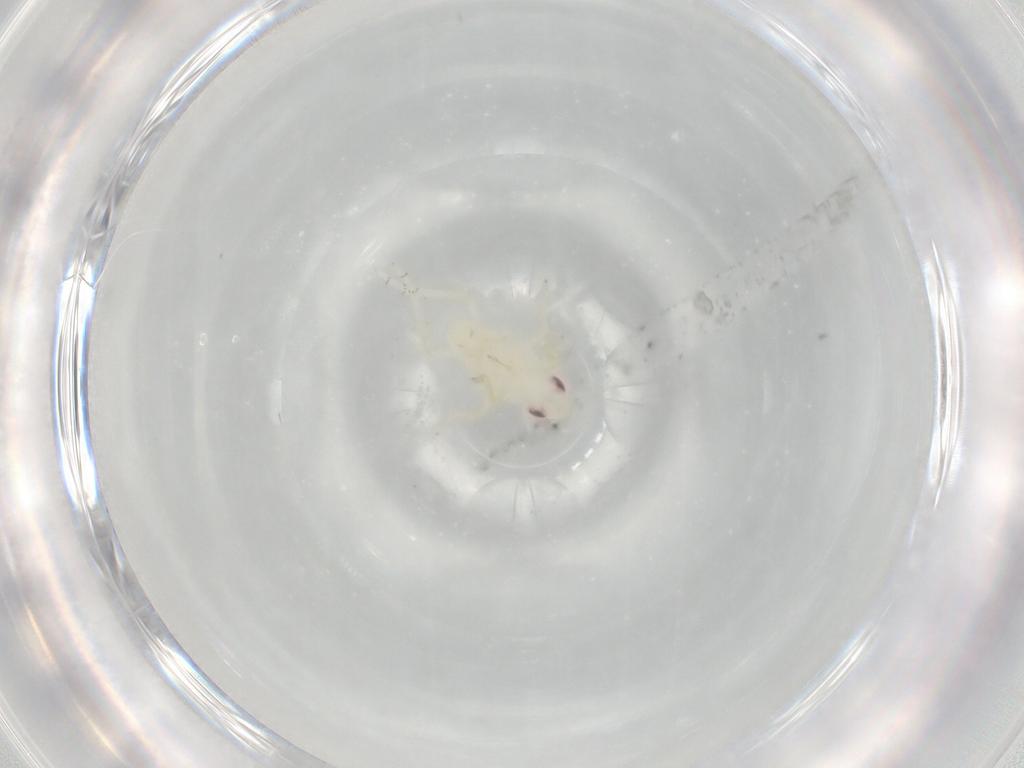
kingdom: Animalia
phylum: Arthropoda
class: Insecta
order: Hemiptera
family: Tropiduchidae
